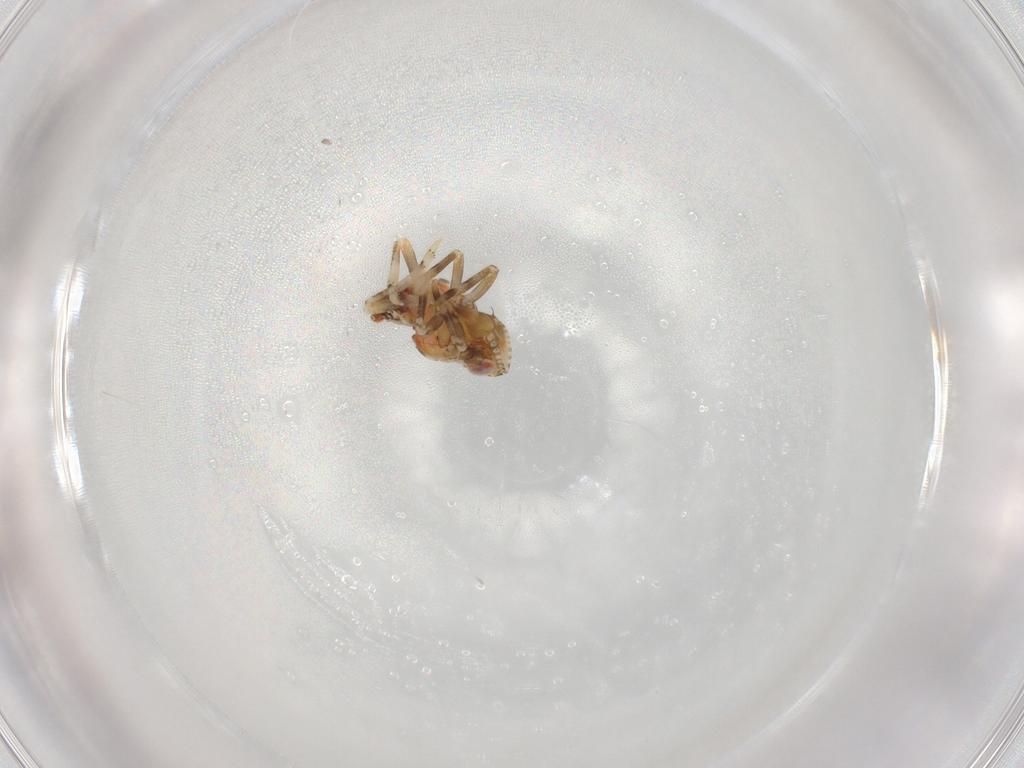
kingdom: Animalia
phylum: Arthropoda
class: Insecta
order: Hemiptera
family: Tropiduchidae
